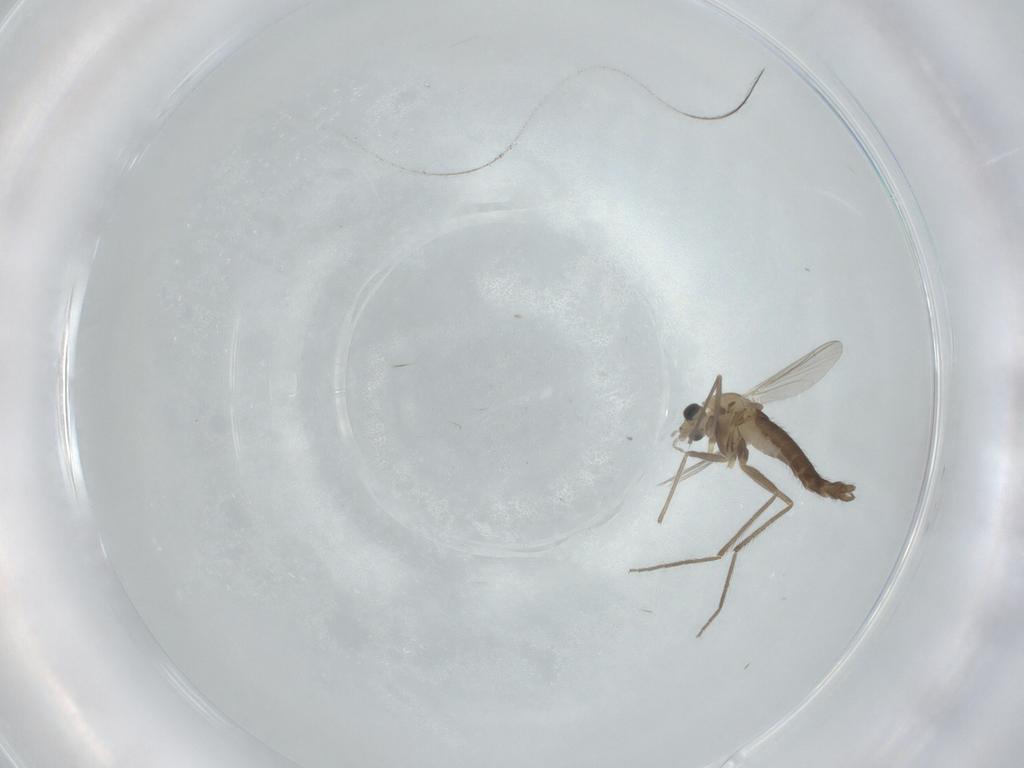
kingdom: Animalia
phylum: Arthropoda
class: Insecta
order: Diptera
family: Chironomidae
